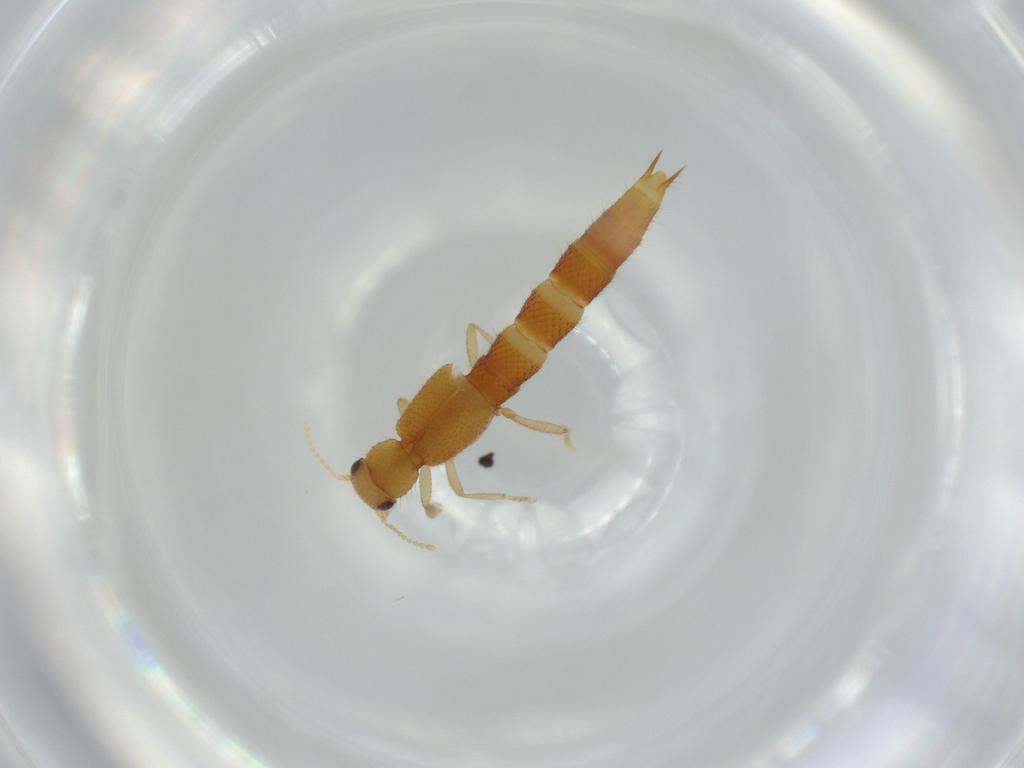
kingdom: Animalia
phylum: Arthropoda
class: Insecta
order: Coleoptera
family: Staphylinidae
